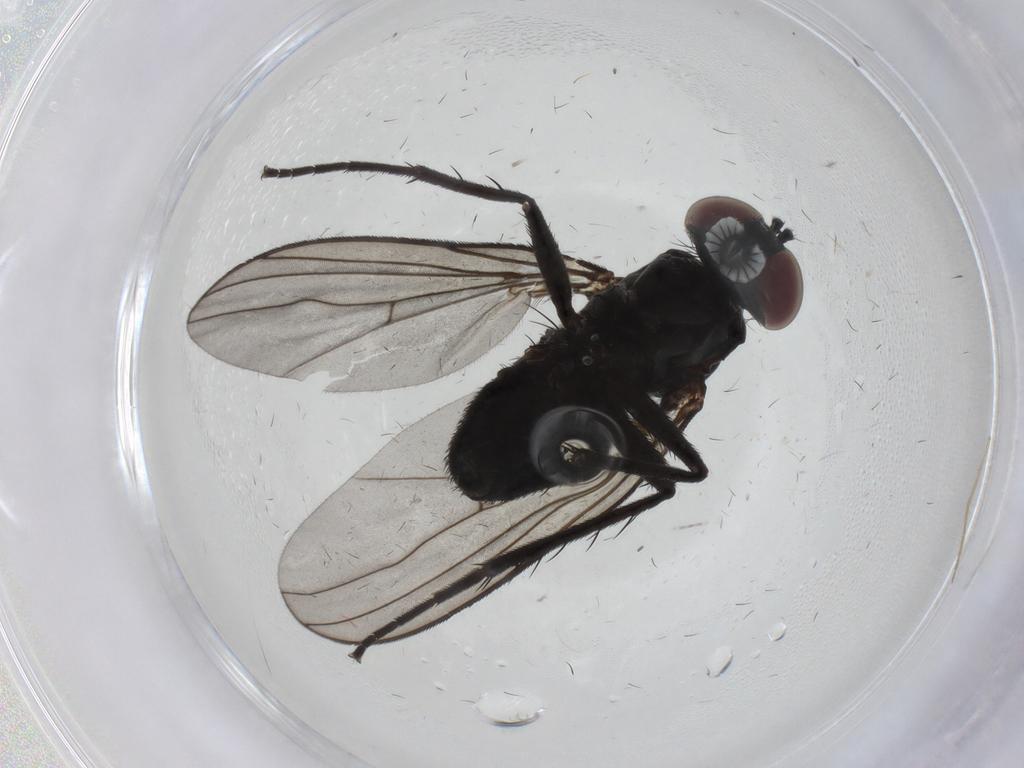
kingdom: Animalia
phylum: Arthropoda
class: Insecta
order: Diptera
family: Dolichopodidae
